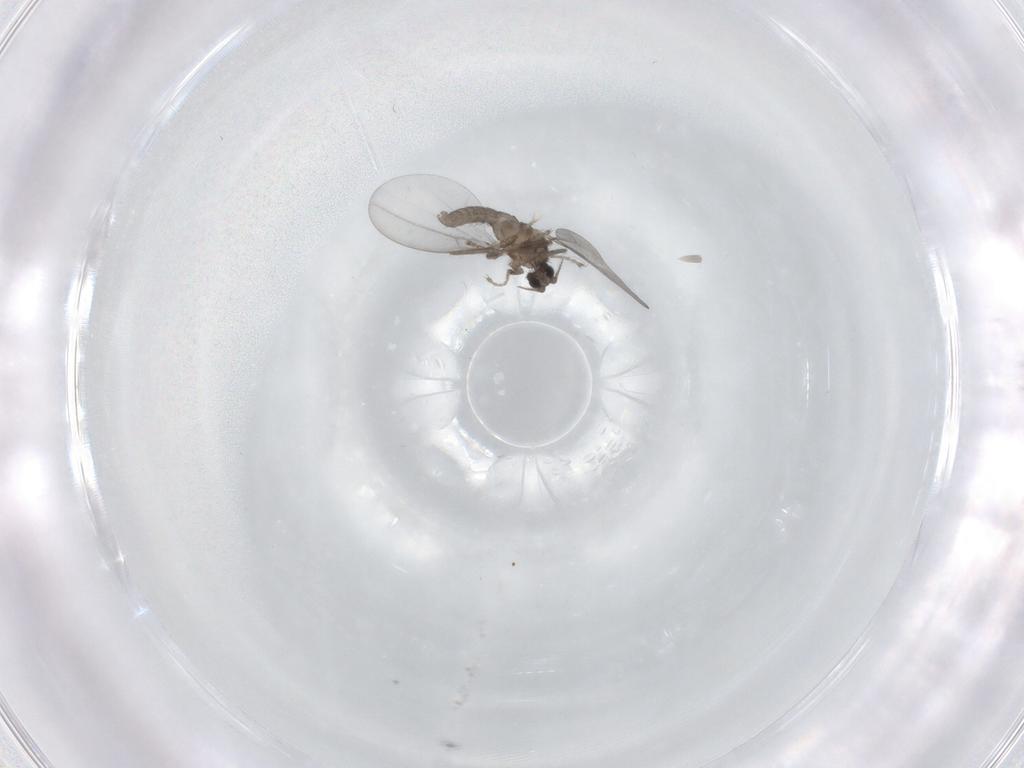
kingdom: Animalia
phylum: Arthropoda
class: Insecta
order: Diptera
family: Cecidomyiidae
